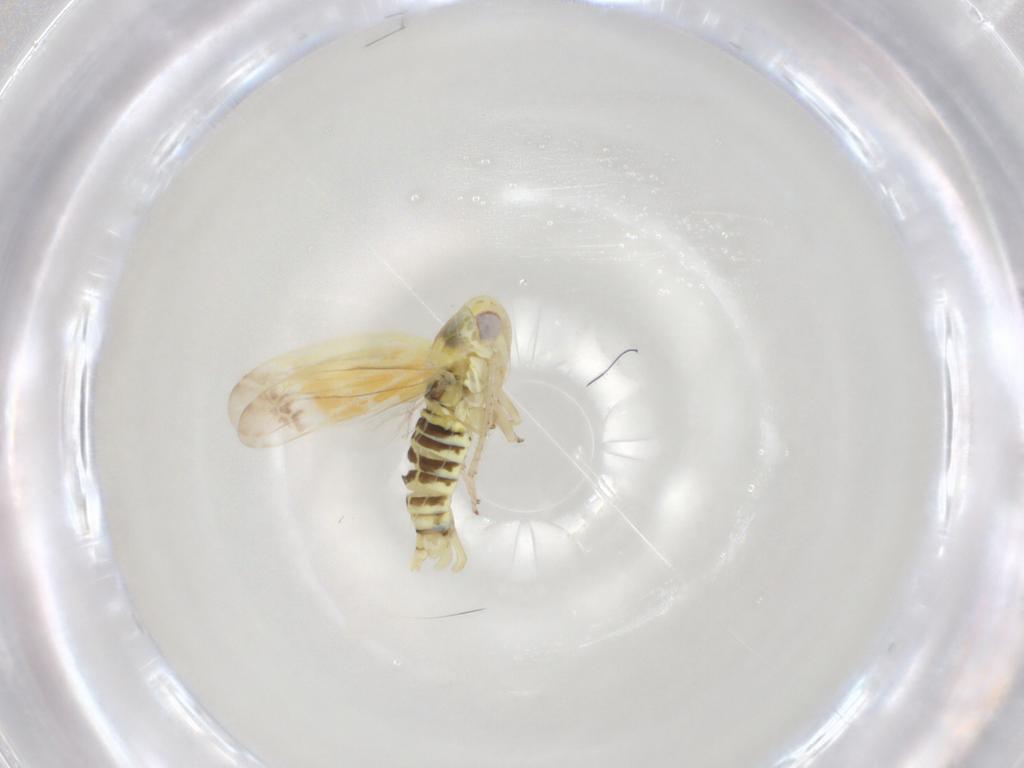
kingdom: Animalia
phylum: Arthropoda
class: Insecta
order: Hemiptera
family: Cicadellidae
